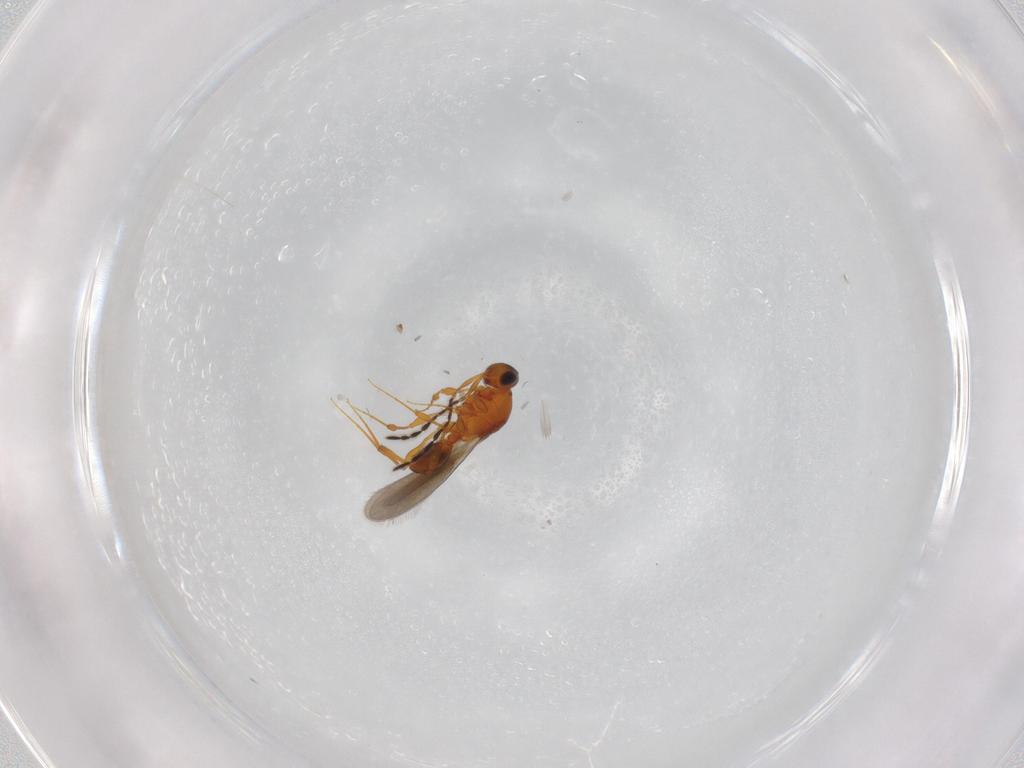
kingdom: Animalia
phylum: Arthropoda
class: Insecta
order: Hymenoptera
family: Platygastridae
